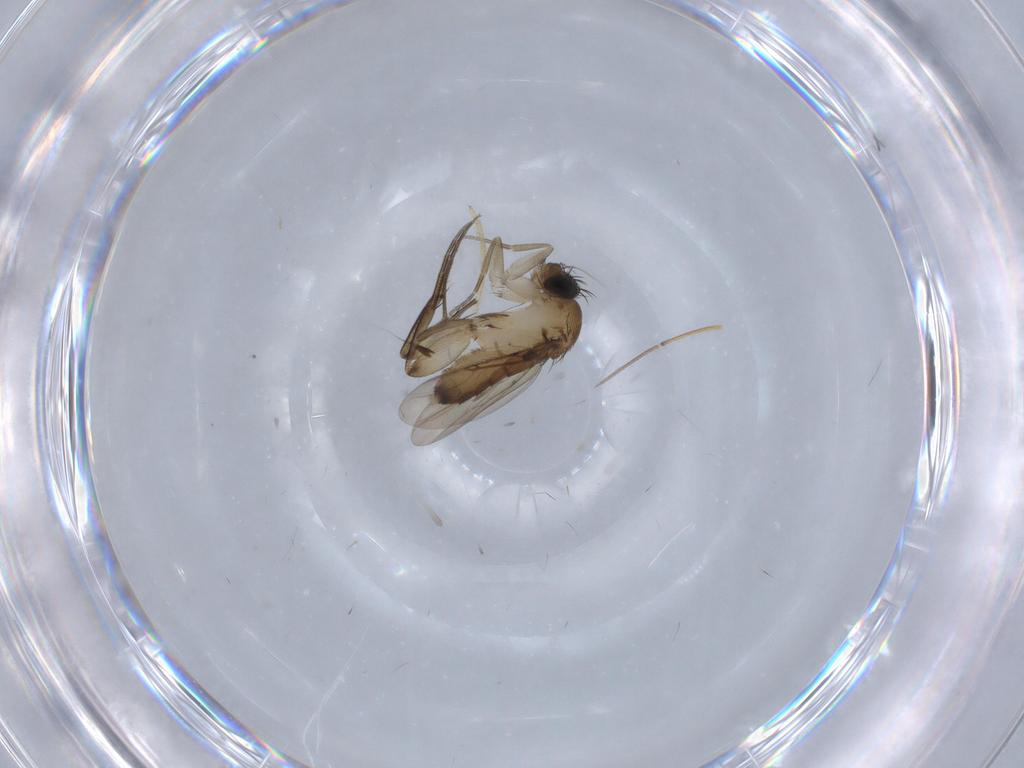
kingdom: Animalia
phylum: Arthropoda
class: Insecta
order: Diptera
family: Phoridae
